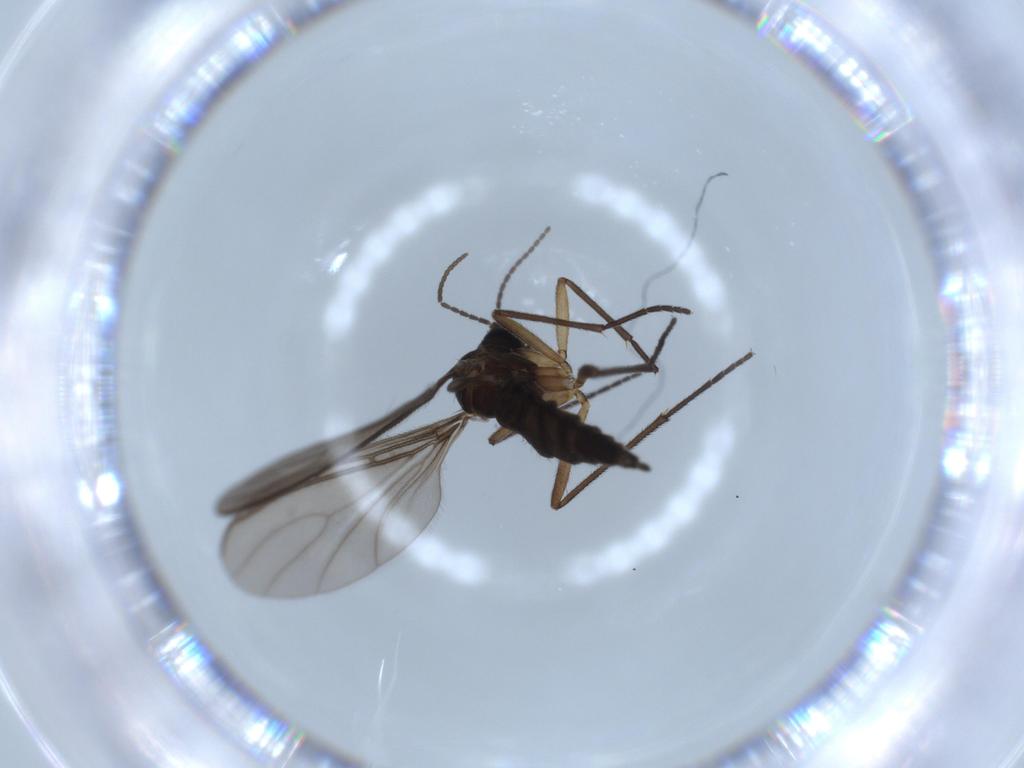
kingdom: Animalia
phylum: Arthropoda
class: Insecta
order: Diptera
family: Sciaridae
